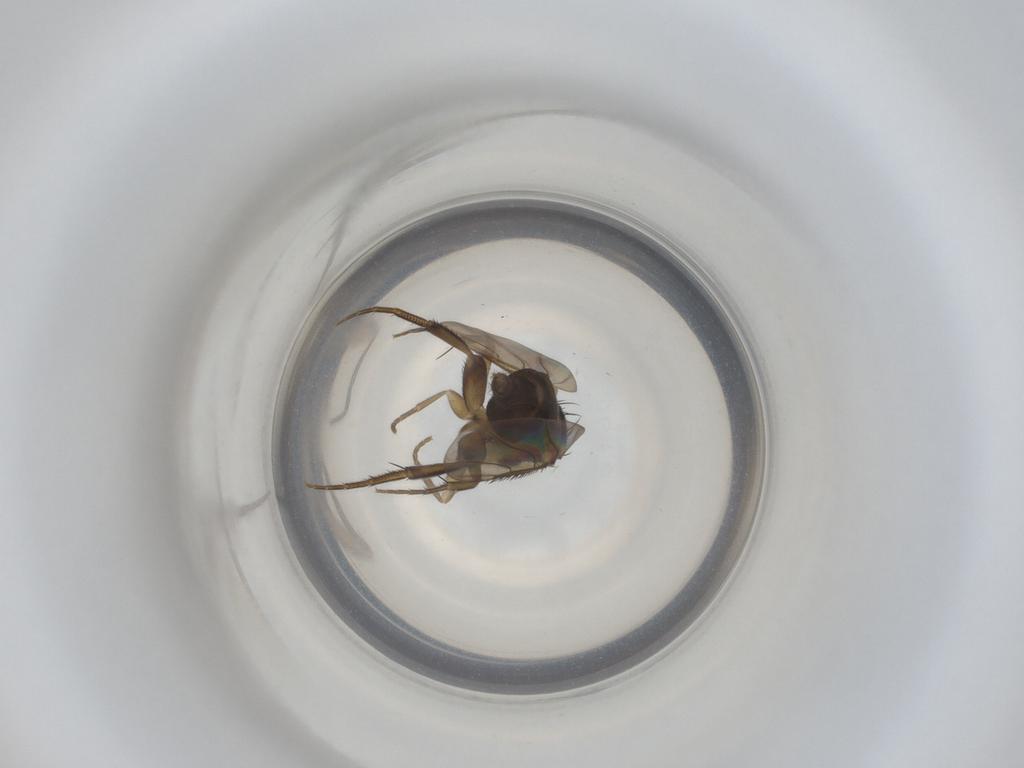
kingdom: Animalia
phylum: Arthropoda
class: Insecta
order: Diptera
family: Phoridae
